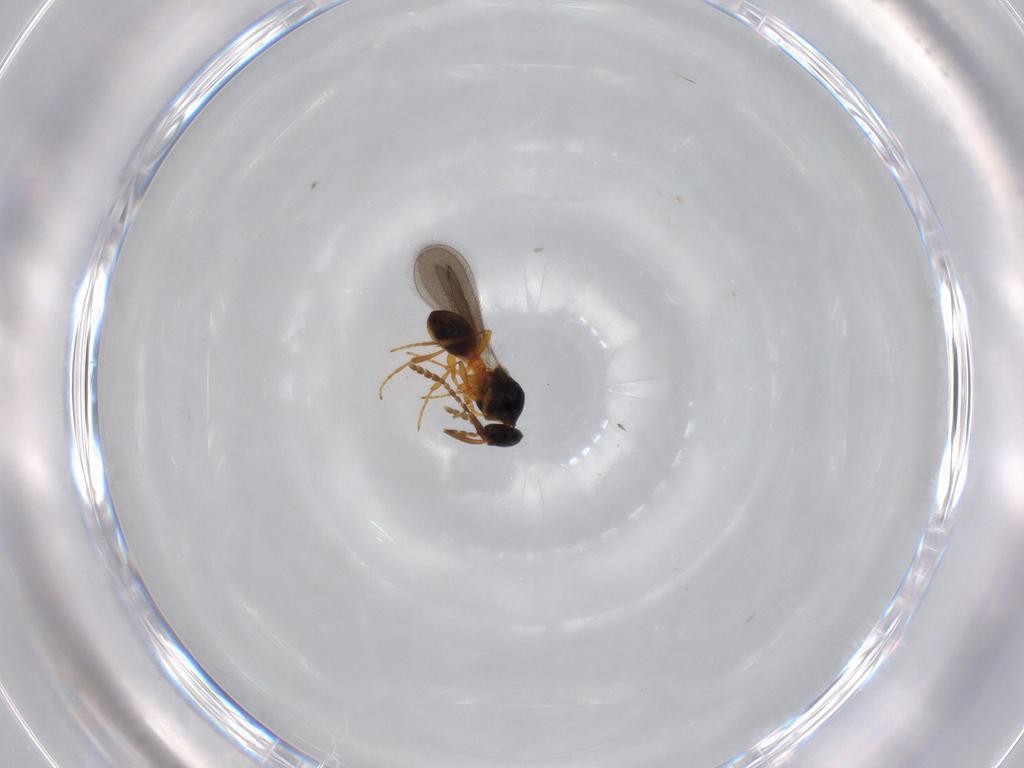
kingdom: Animalia
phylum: Arthropoda
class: Insecta
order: Hymenoptera
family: Platygastridae
